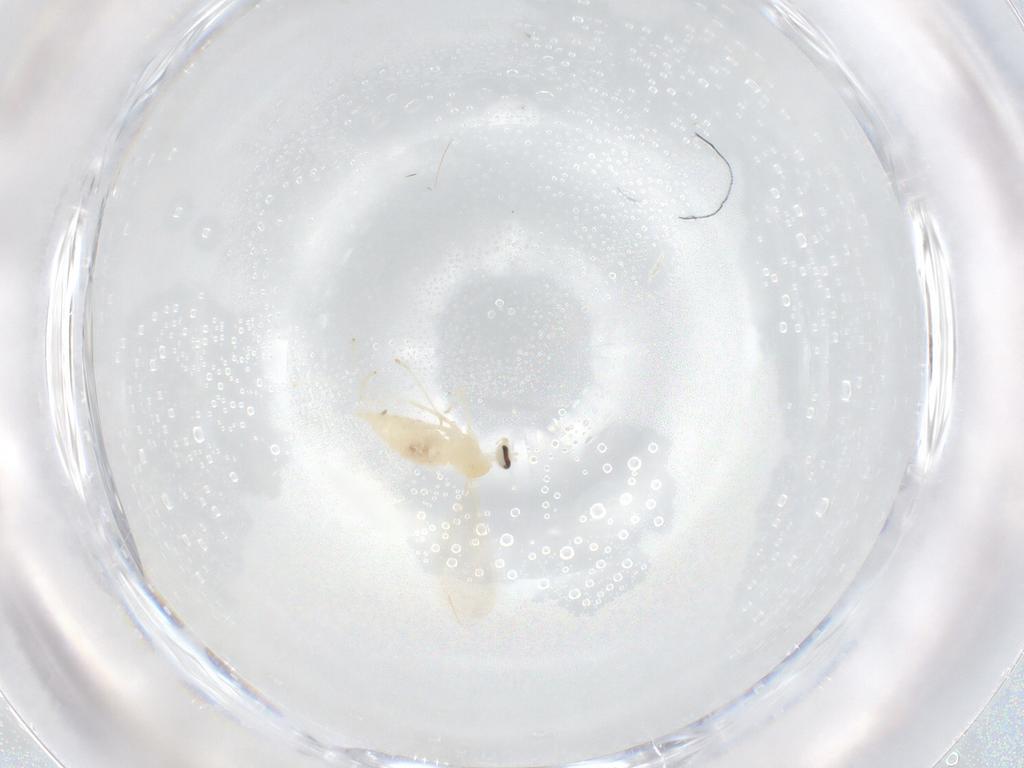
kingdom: Animalia
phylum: Arthropoda
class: Insecta
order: Diptera
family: Cecidomyiidae
